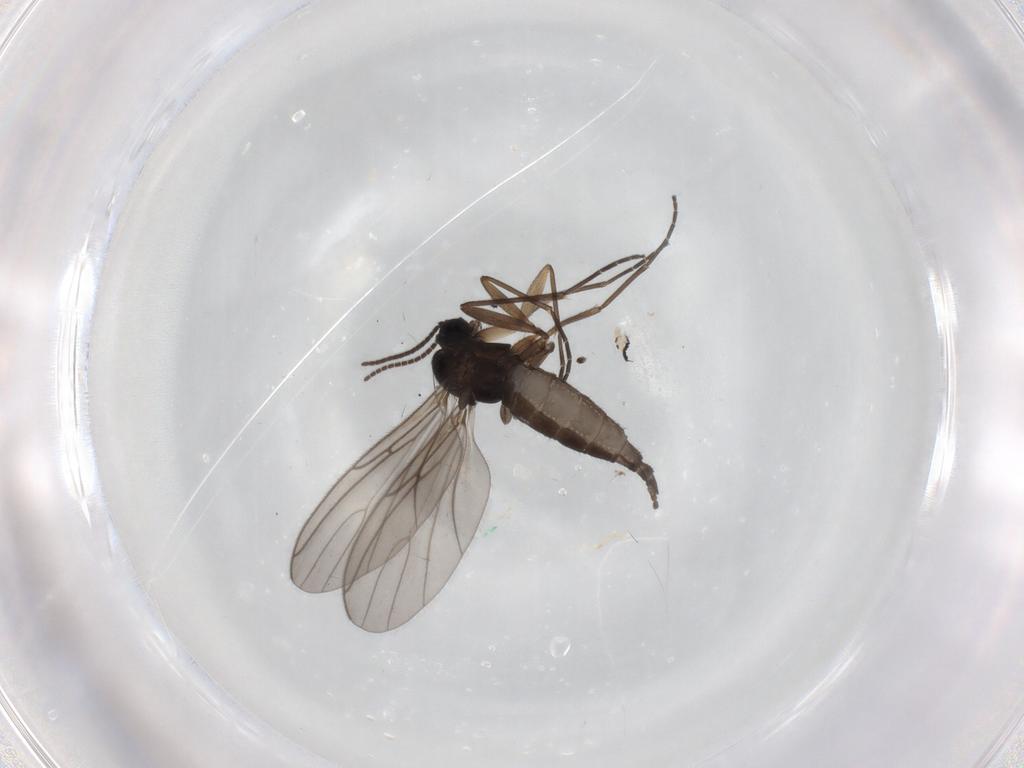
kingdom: Animalia
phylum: Arthropoda
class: Insecta
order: Diptera
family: Sciaridae
